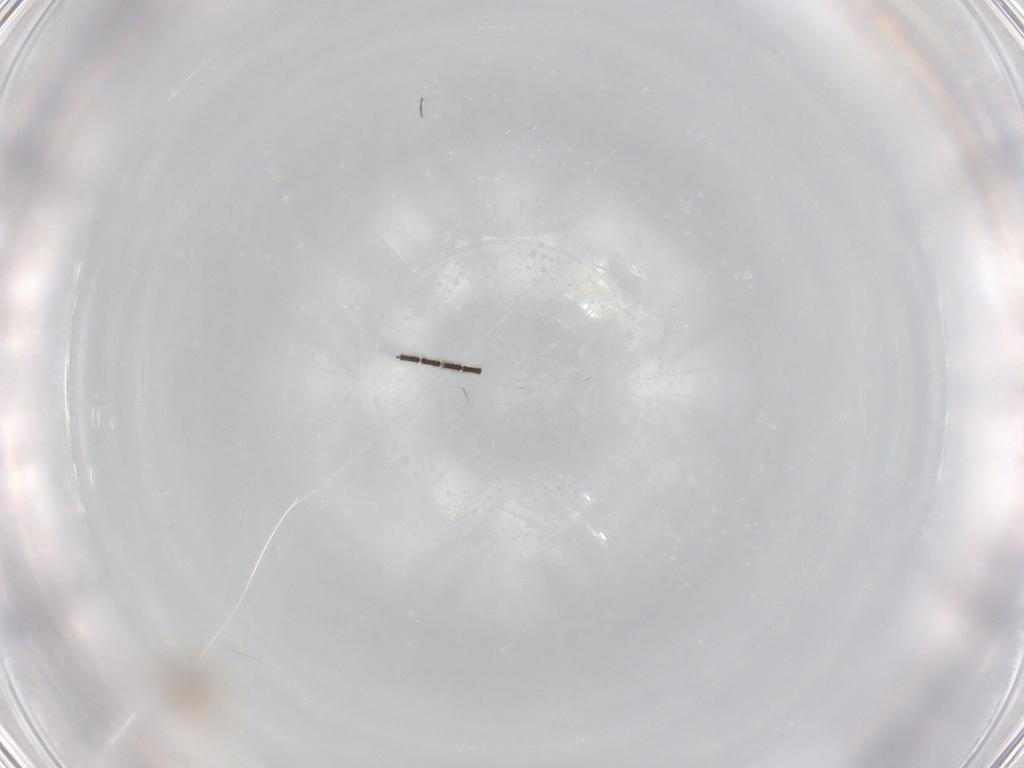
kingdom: Animalia
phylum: Arthropoda
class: Insecta
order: Diptera
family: Cecidomyiidae
